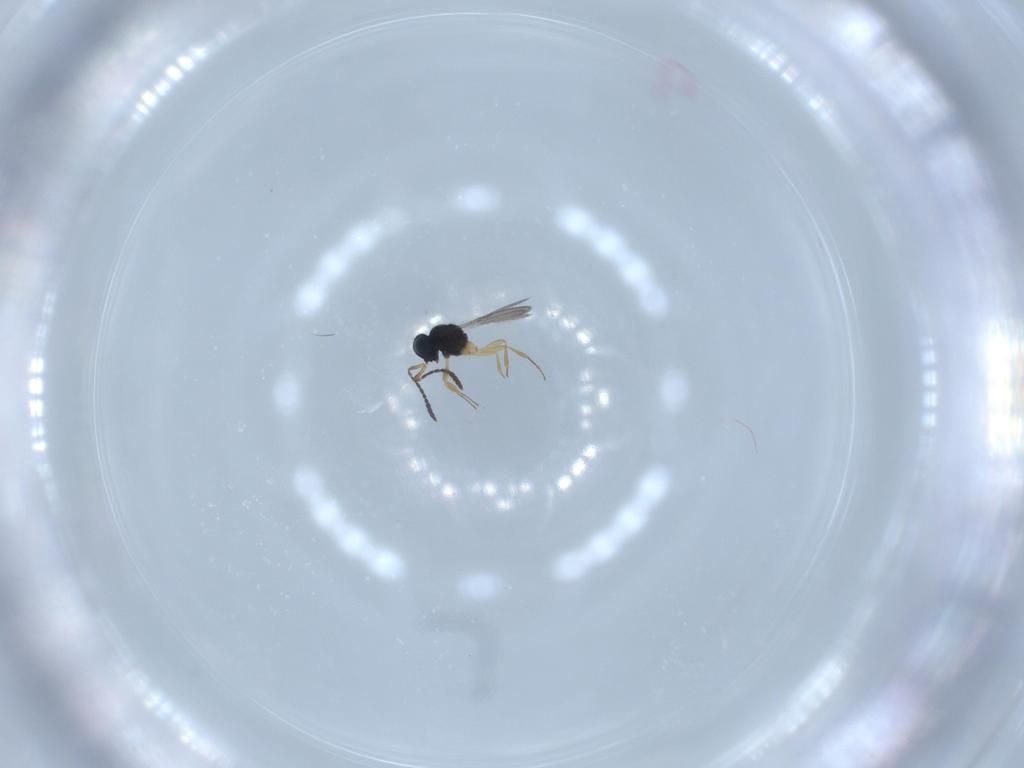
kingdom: Animalia
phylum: Arthropoda
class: Insecta
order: Hymenoptera
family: Scelionidae
